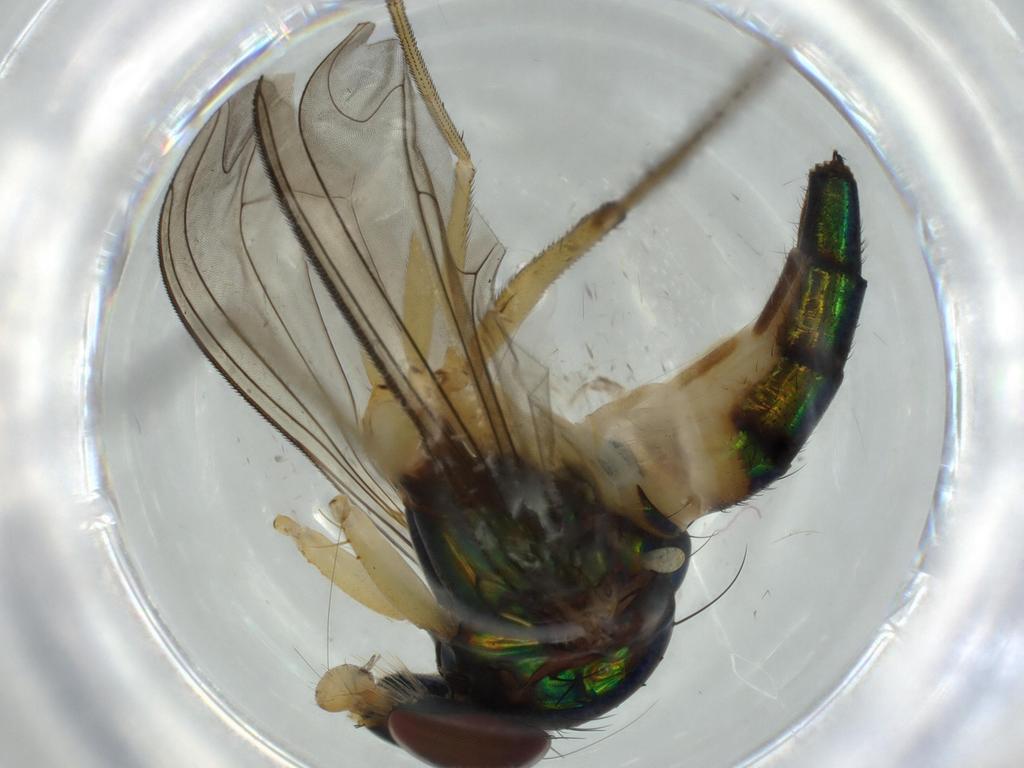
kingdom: Animalia
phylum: Arthropoda
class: Insecta
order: Diptera
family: Dolichopodidae
